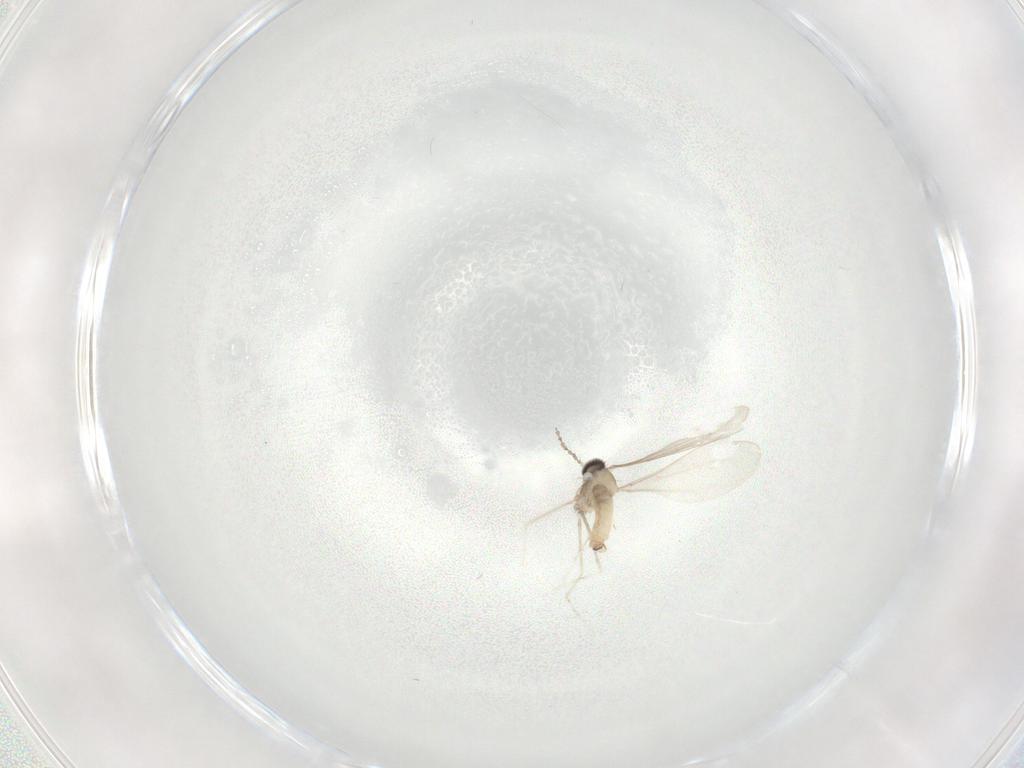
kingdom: Animalia
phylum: Arthropoda
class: Insecta
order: Diptera
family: Cecidomyiidae
